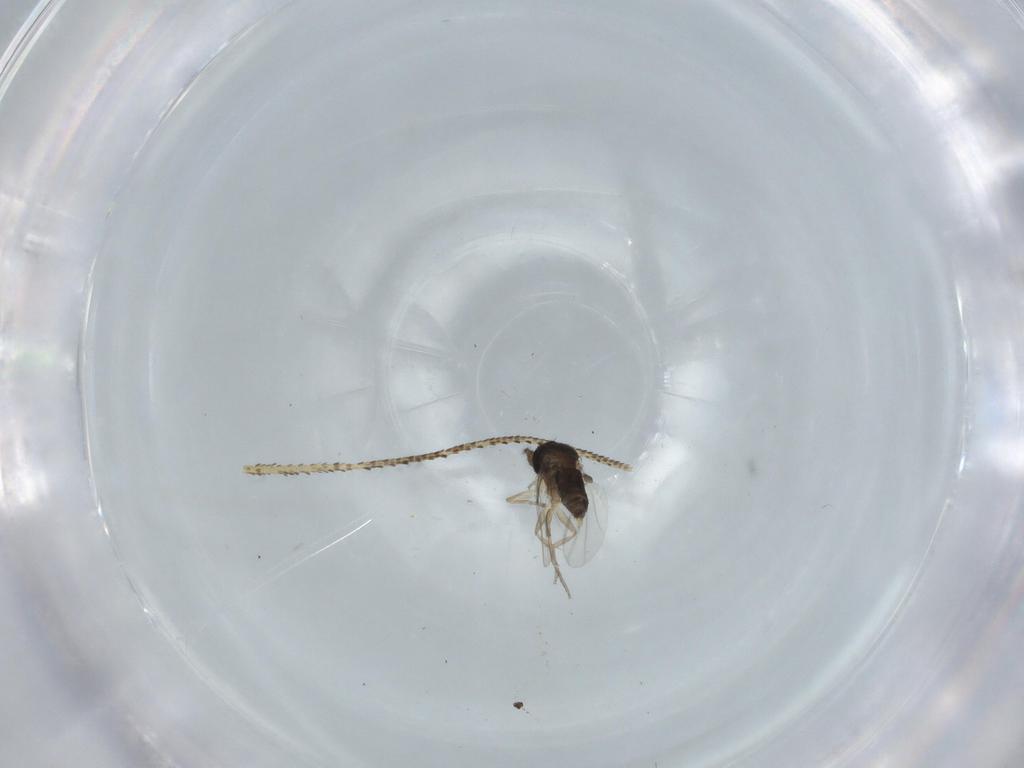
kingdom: Animalia
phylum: Arthropoda
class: Insecta
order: Diptera
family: Phoridae
